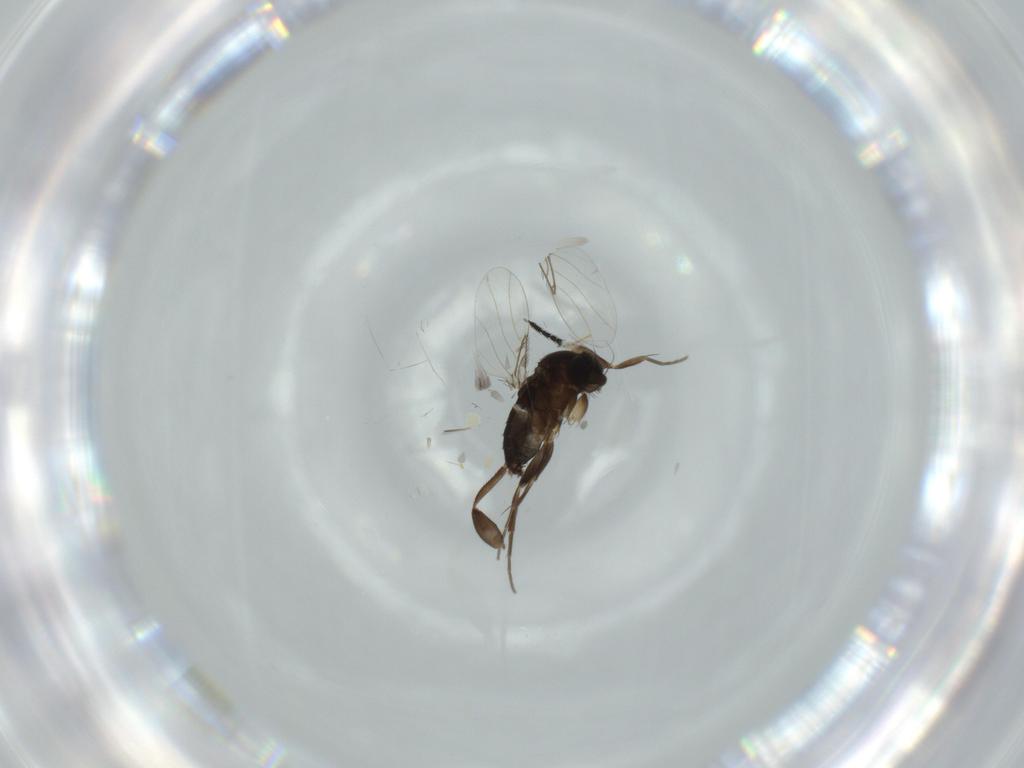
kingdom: Animalia
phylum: Arthropoda
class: Insecta
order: Diptera
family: Phoridae
